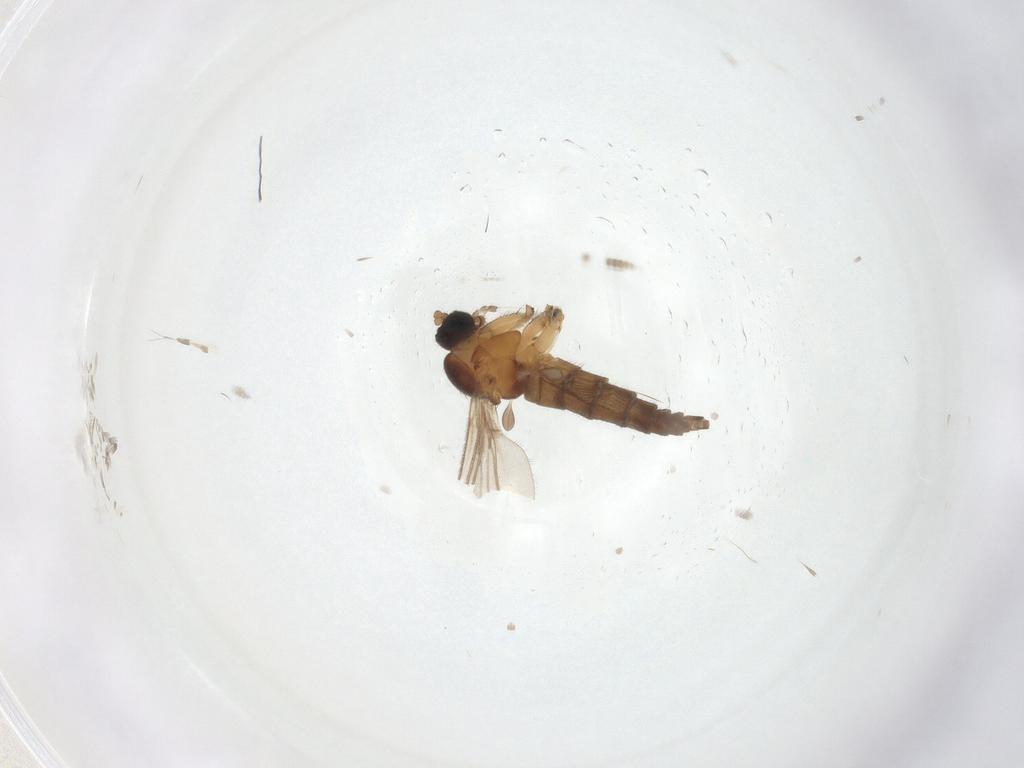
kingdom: Animalia
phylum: Arthropoda
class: Insecta
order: Diptera
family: Sciaridae
